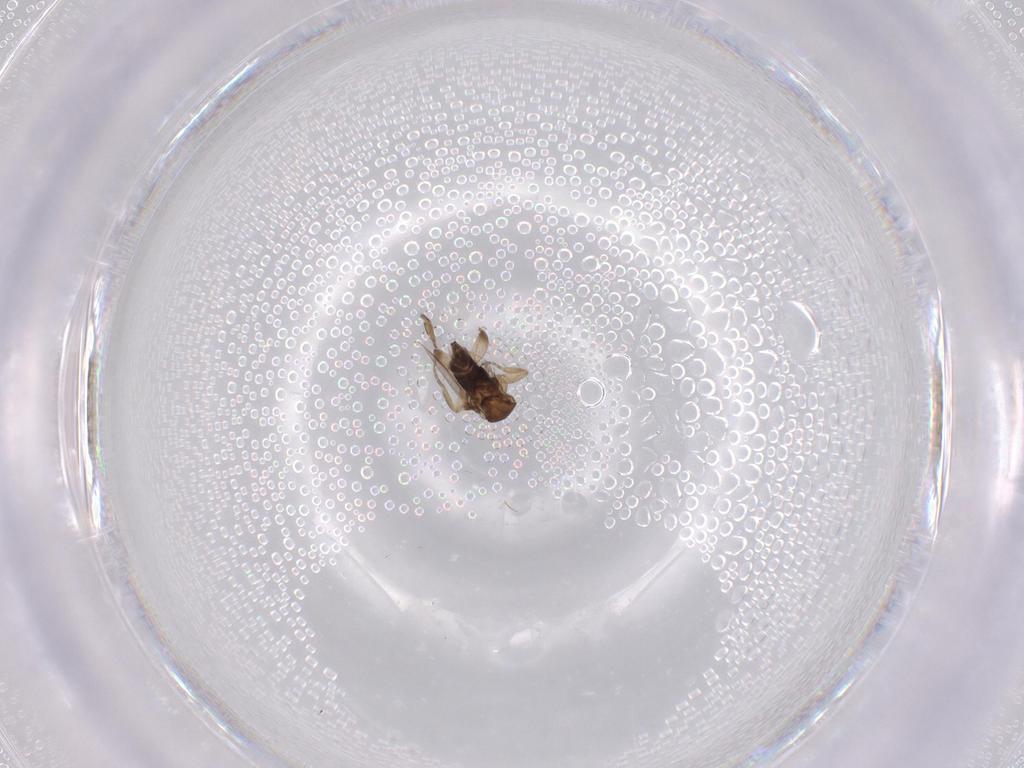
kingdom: Animalia
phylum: Arthropoda
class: Insecta
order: Diptera
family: Phoridae
